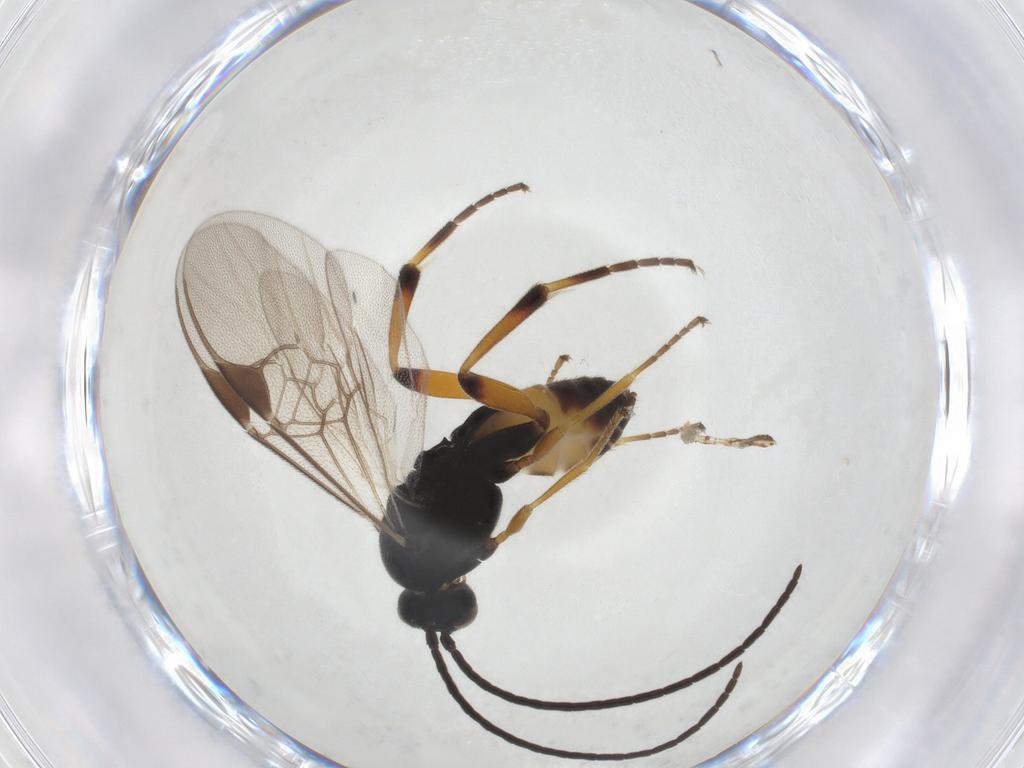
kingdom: Animalia
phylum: Arthropoda
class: Insecta
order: Hymenoptera
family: Braconidae
